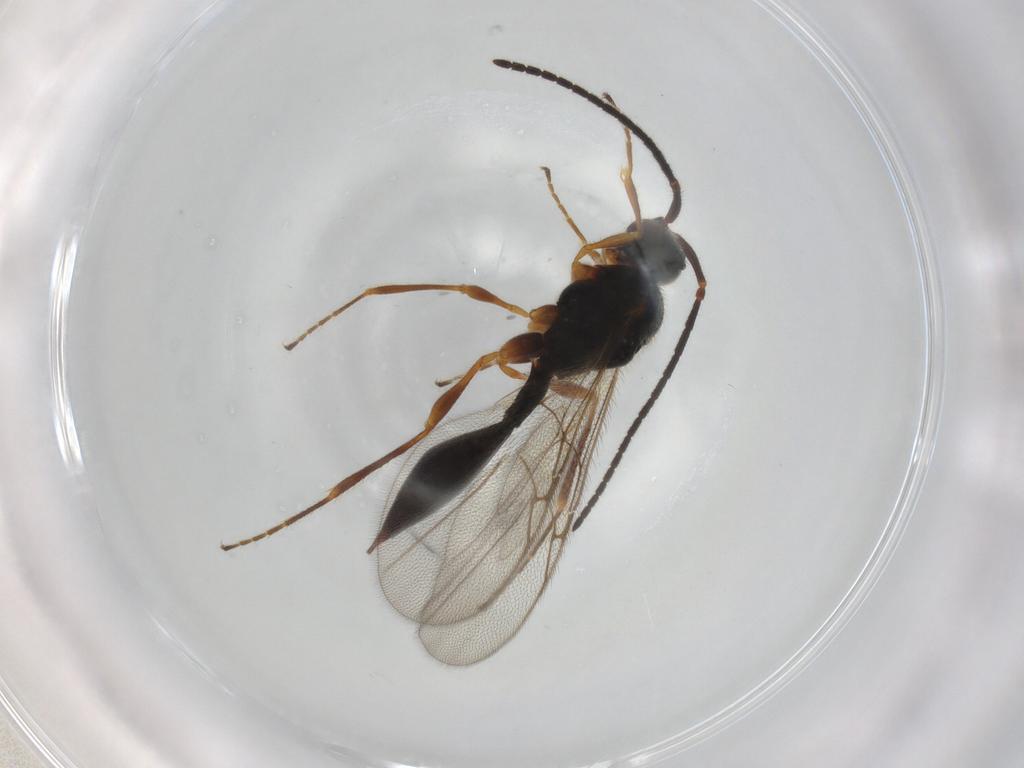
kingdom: Animalia
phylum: Arthropoda
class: Insecta
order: Hymenoptera
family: Diapriidae
